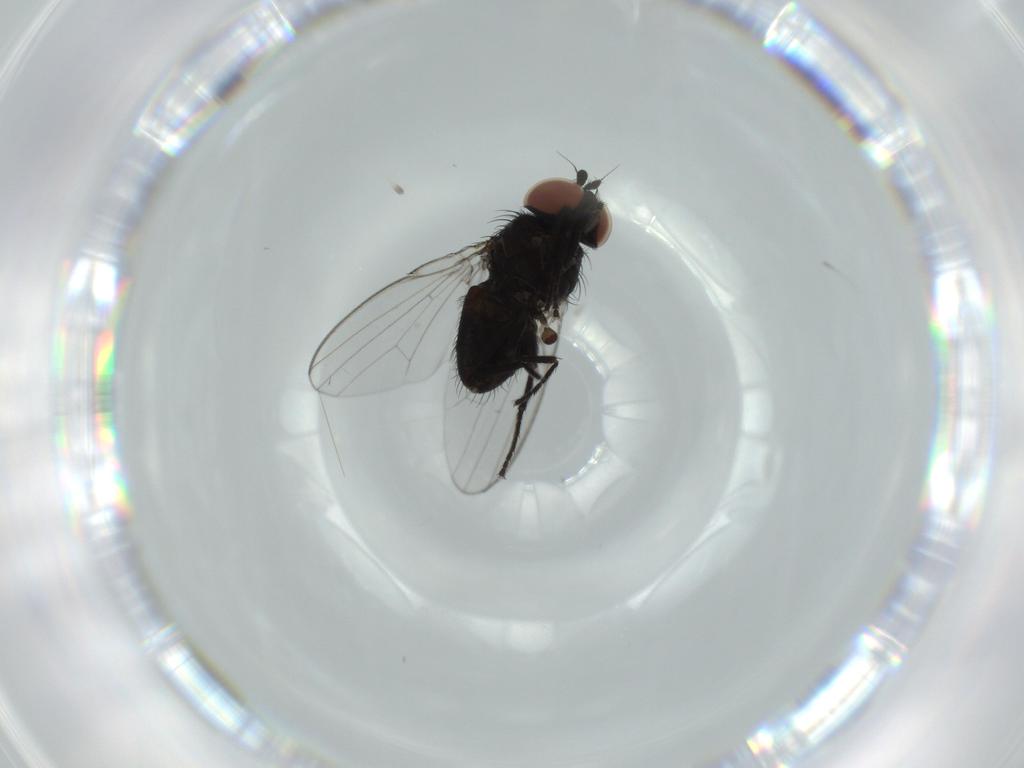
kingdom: Animalia
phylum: Arthropoda
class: Insecta
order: Diptera
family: Milichiidae
